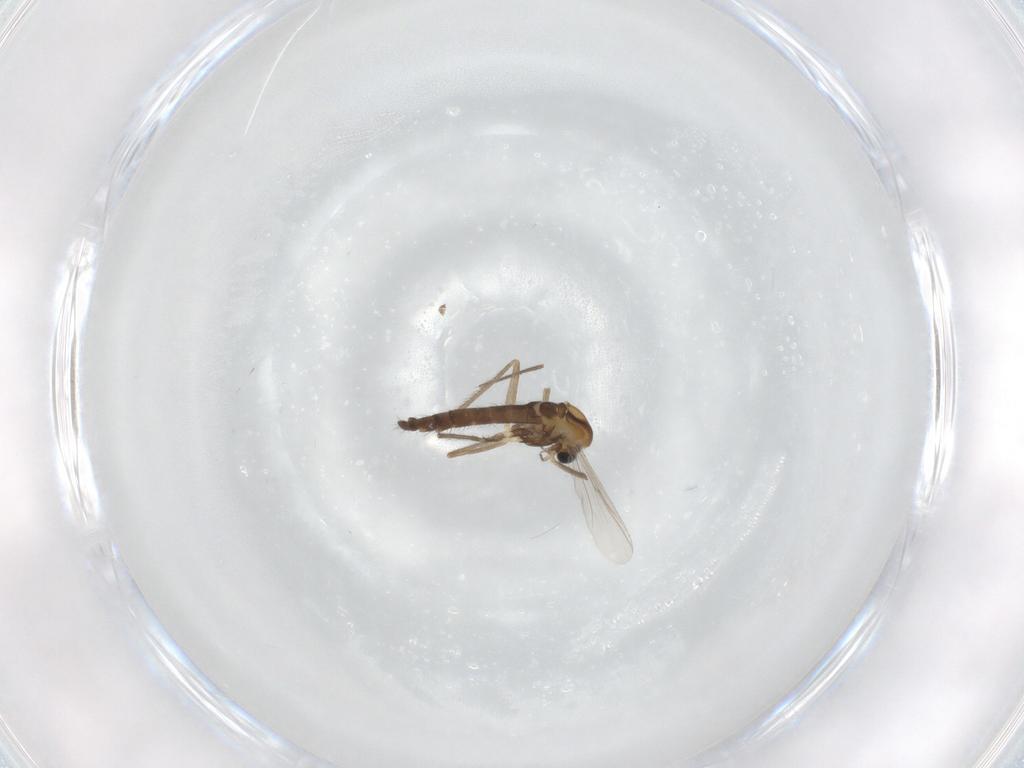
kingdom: Animalia
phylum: Arthropoda
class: Insecta
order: Diptera
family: Chironomidae
